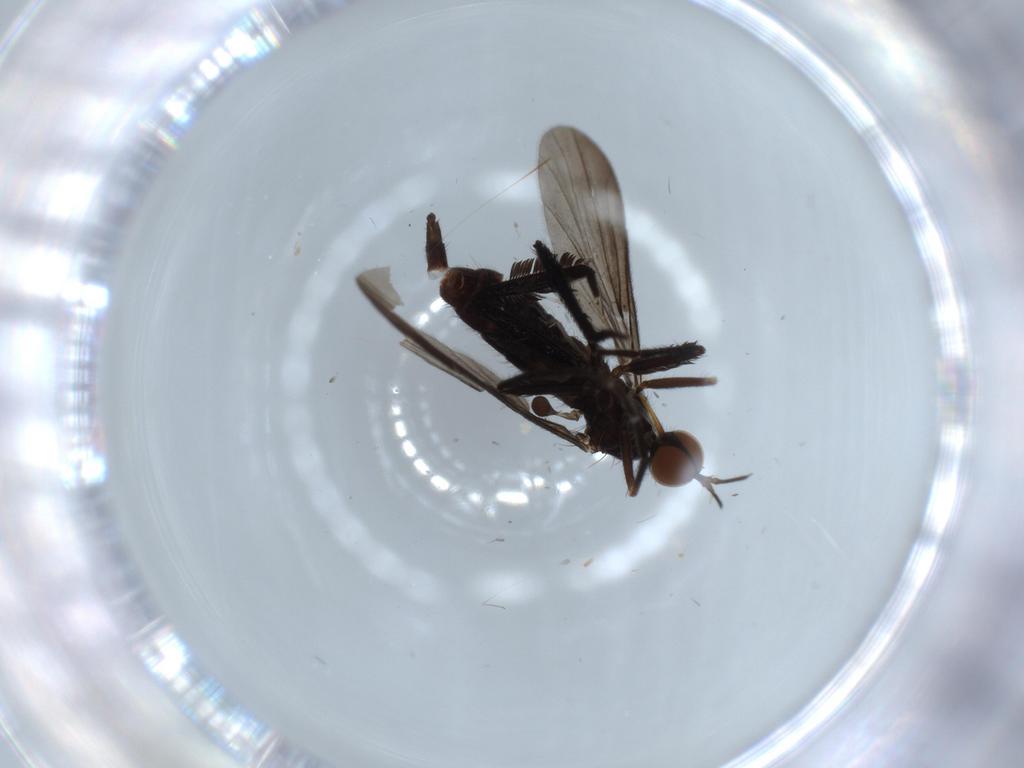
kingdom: Animalia
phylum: Arthropoda
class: Insecta
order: Diptera
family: Empididae
